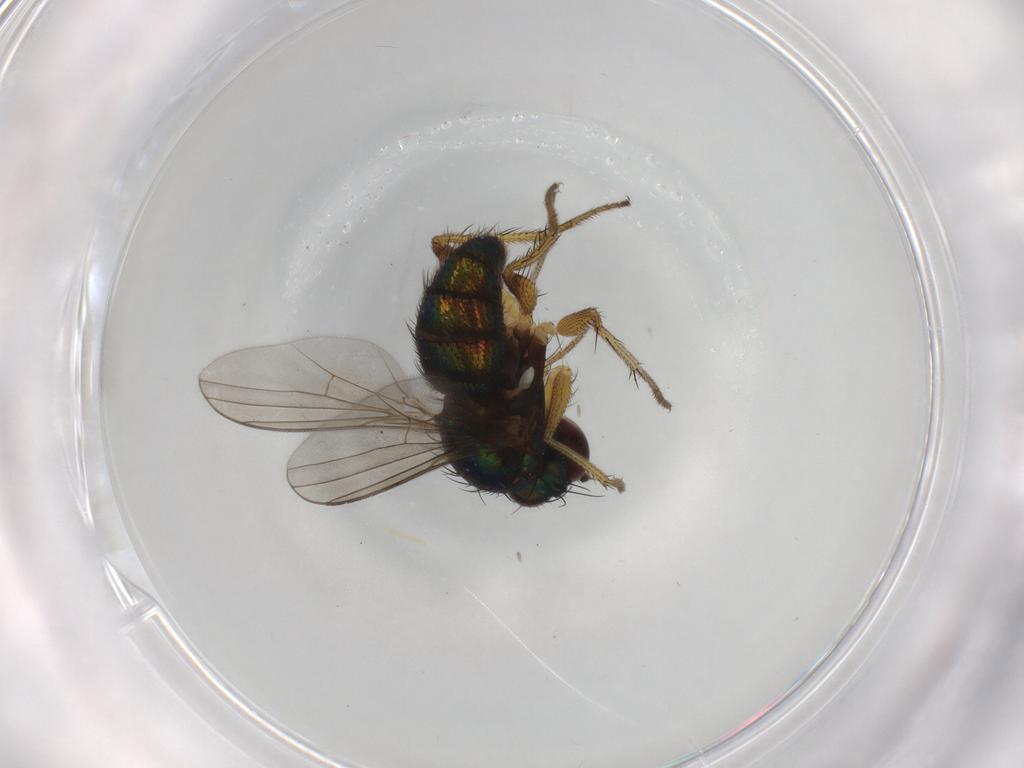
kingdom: Animalia
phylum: Arthropoda
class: Insecta
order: Diptera
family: Dolichopodidae
